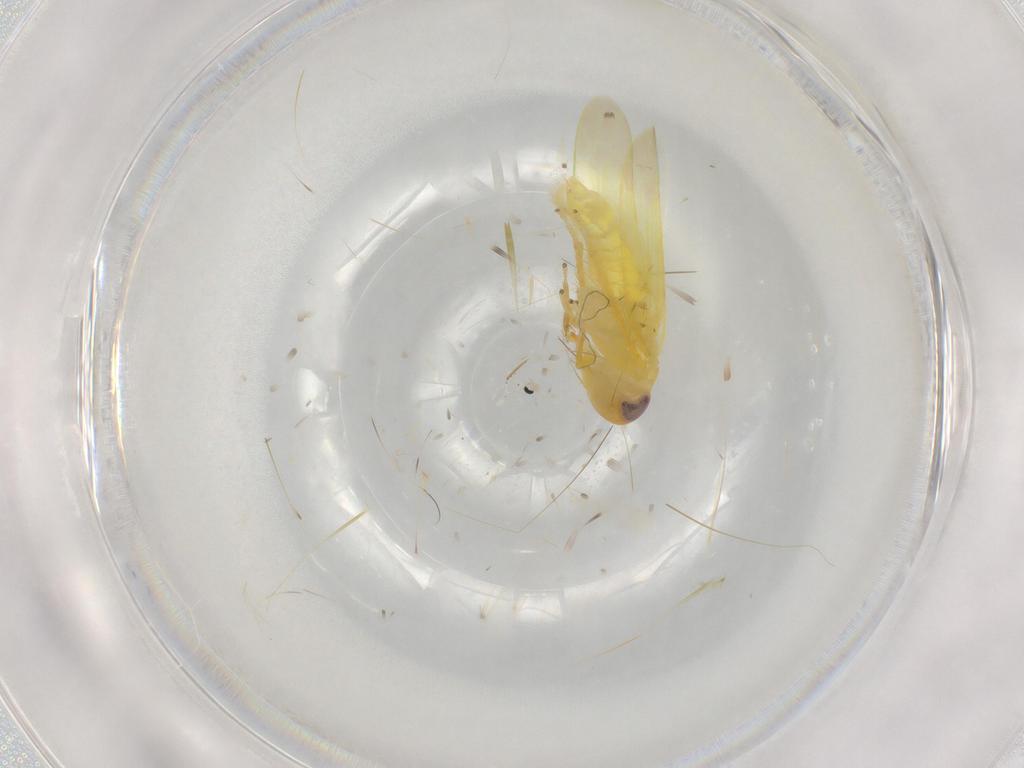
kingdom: Animalia
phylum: Arthropoda
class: Insecta
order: Hemiptera
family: Cicadellidae
